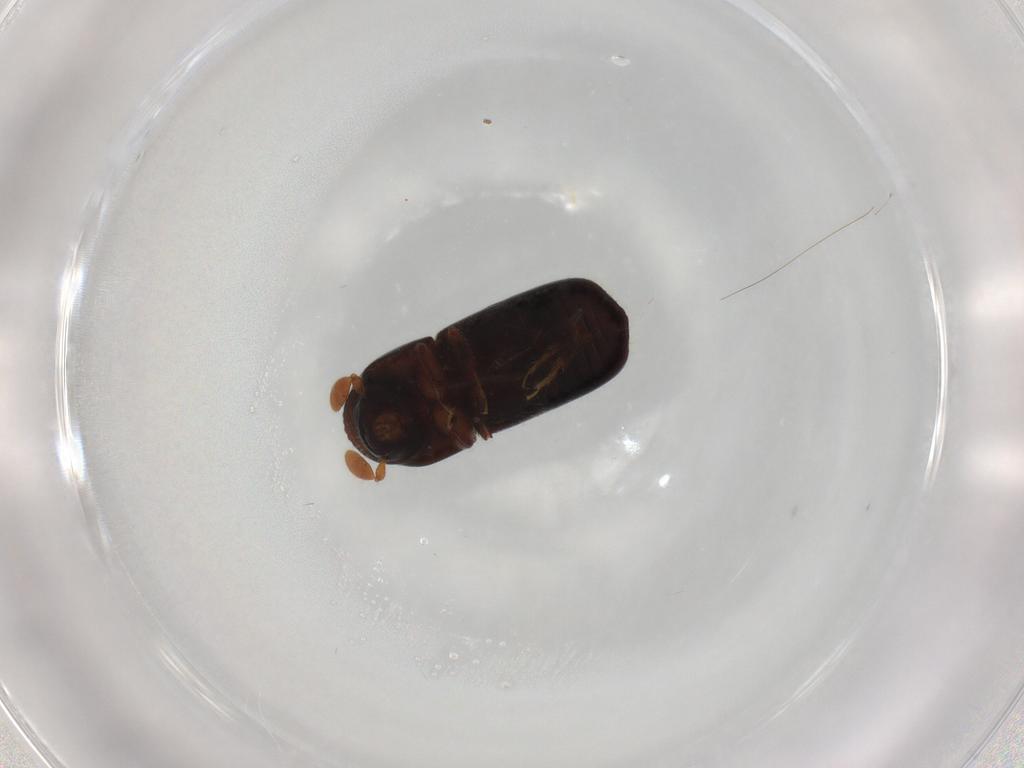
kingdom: Animalia
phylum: Arthropoda
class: Insecta
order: Coleoptera
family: Curculionidae
